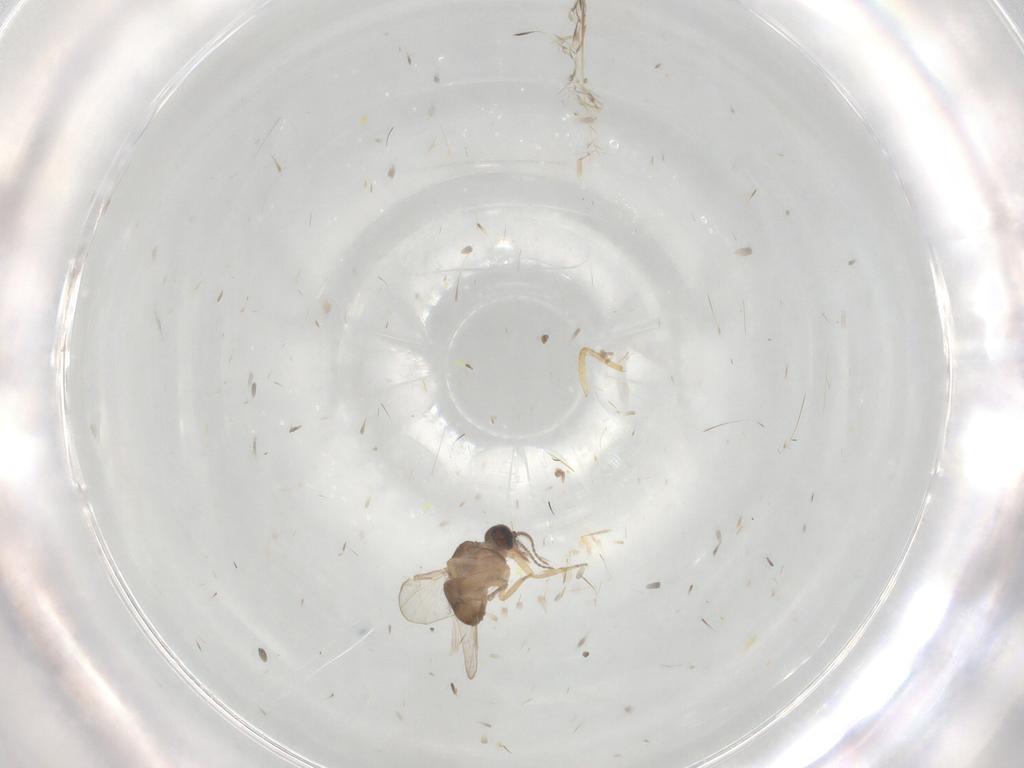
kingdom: Animalia
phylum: Arthropoda
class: Insecta
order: Diptera
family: Ceratopogonidae
